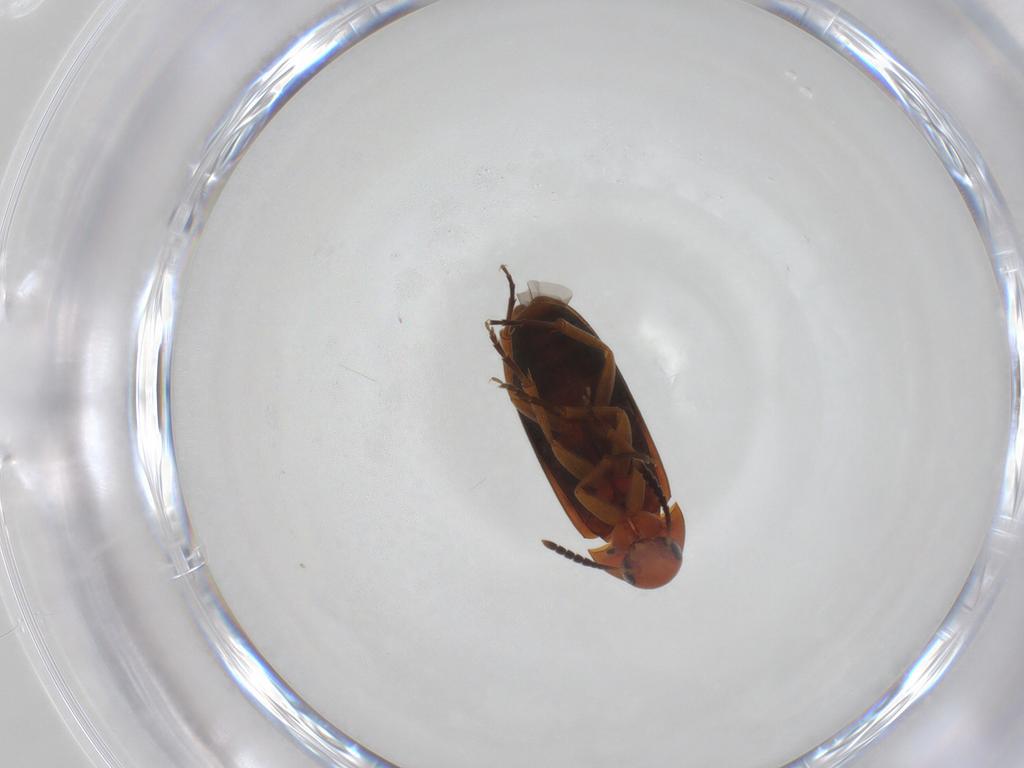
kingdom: Animalia
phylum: Arthropoda
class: Insecta
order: Coleoptera
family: Scraptiidae
